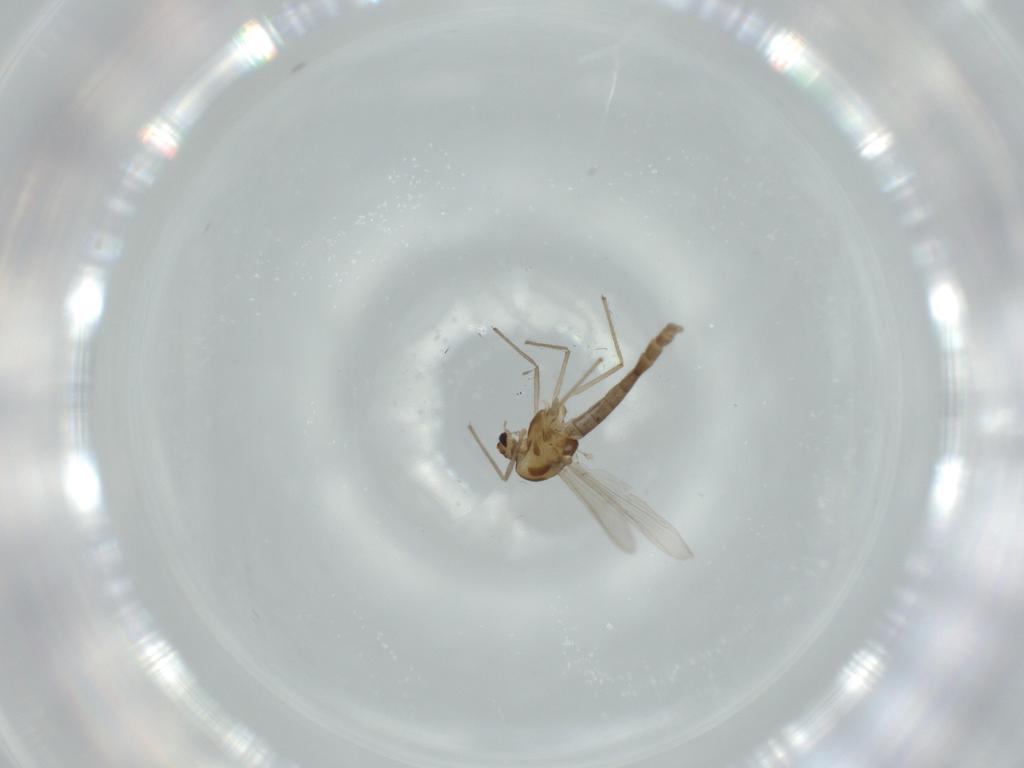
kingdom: Animalia
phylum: Arthropoda
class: Insecta
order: Diptera
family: Chironomidae
